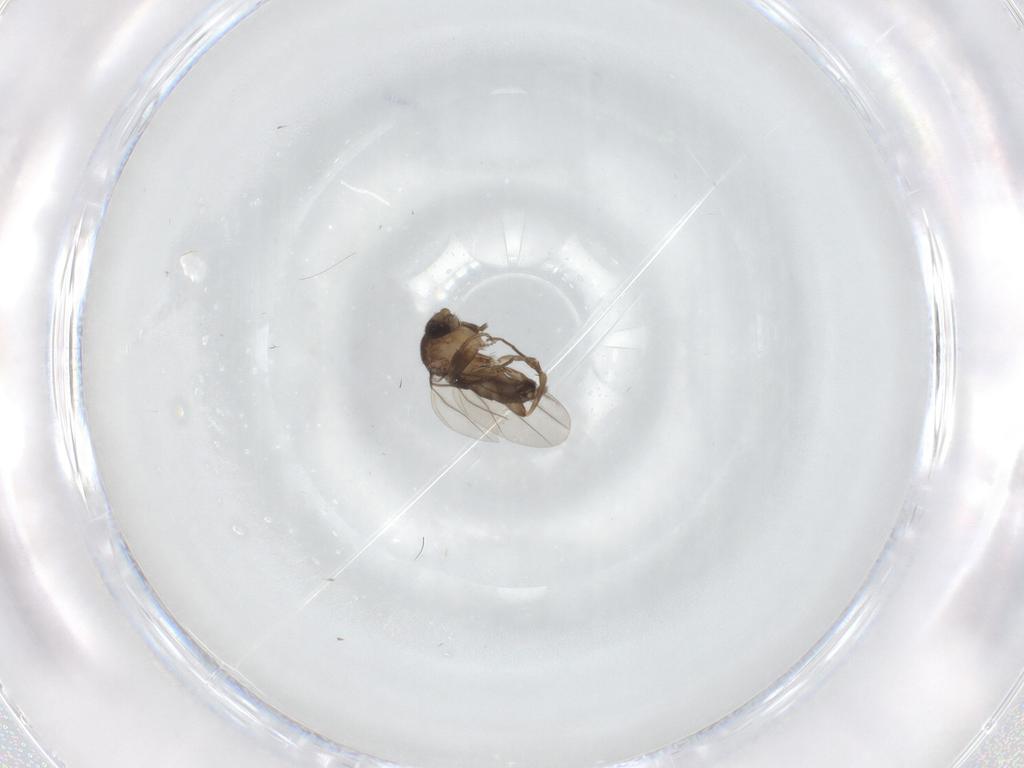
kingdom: Animalia
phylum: Arthropoda
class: Insecta
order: Diptera
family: Phoridae
